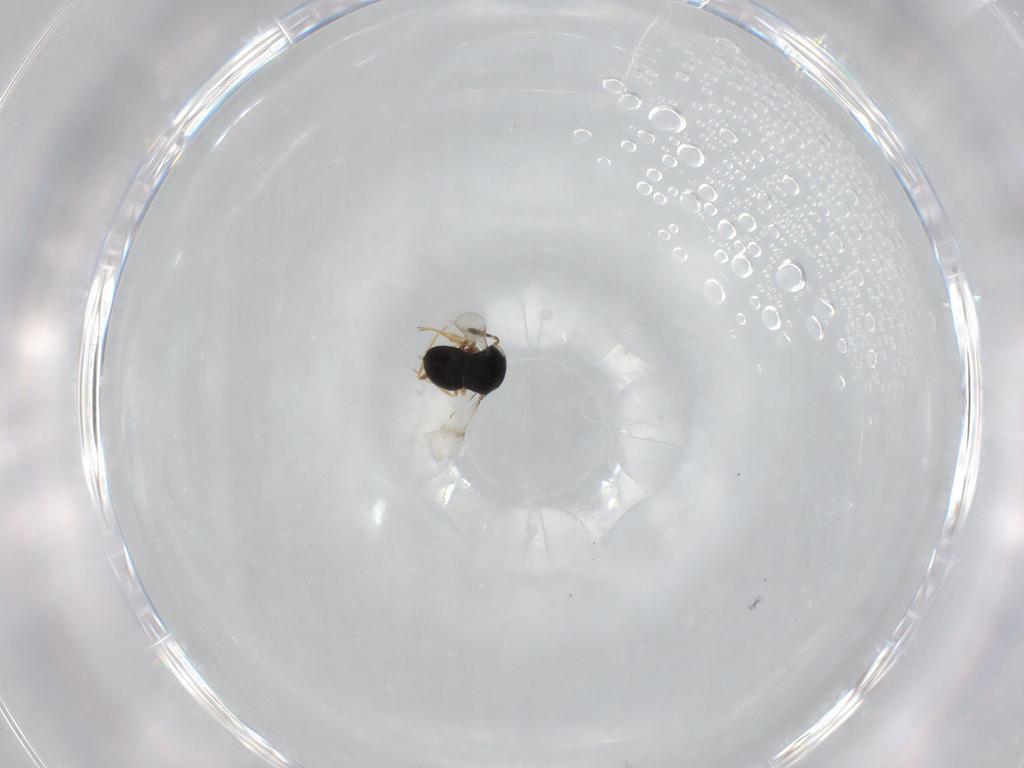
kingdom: Animalia
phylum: Arthropoda
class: Insecta
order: Hymenoptera
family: Scelionidae
